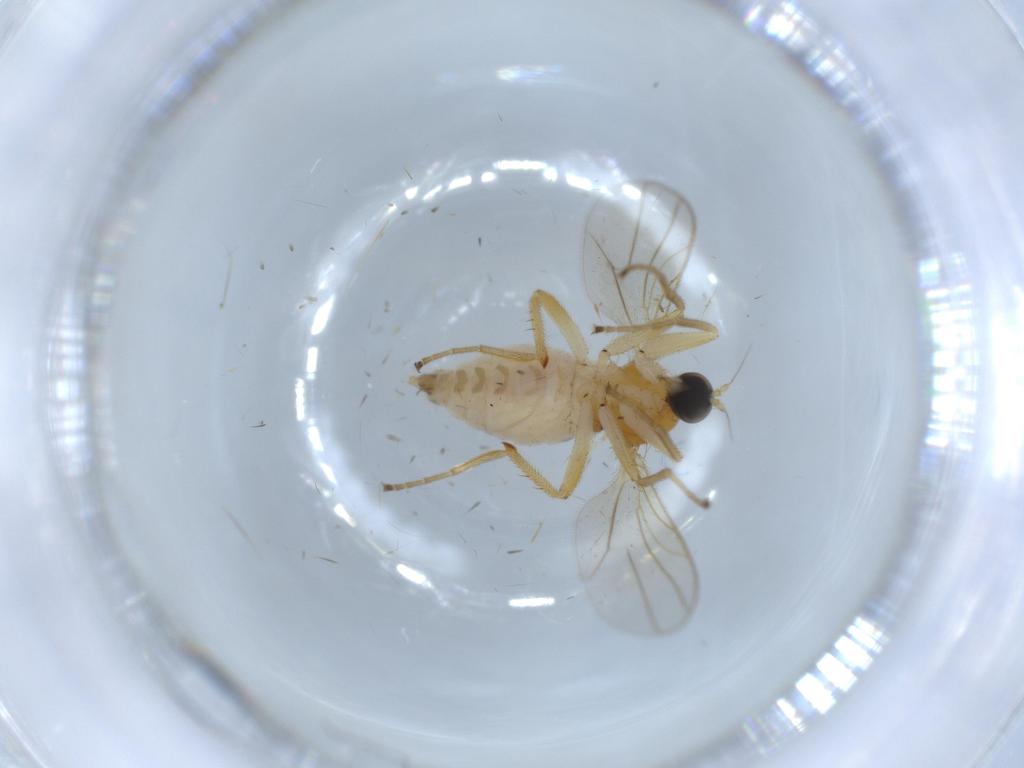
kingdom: Animalia
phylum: Arthropoda
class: Insecta
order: Diptera
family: Hybotidae
